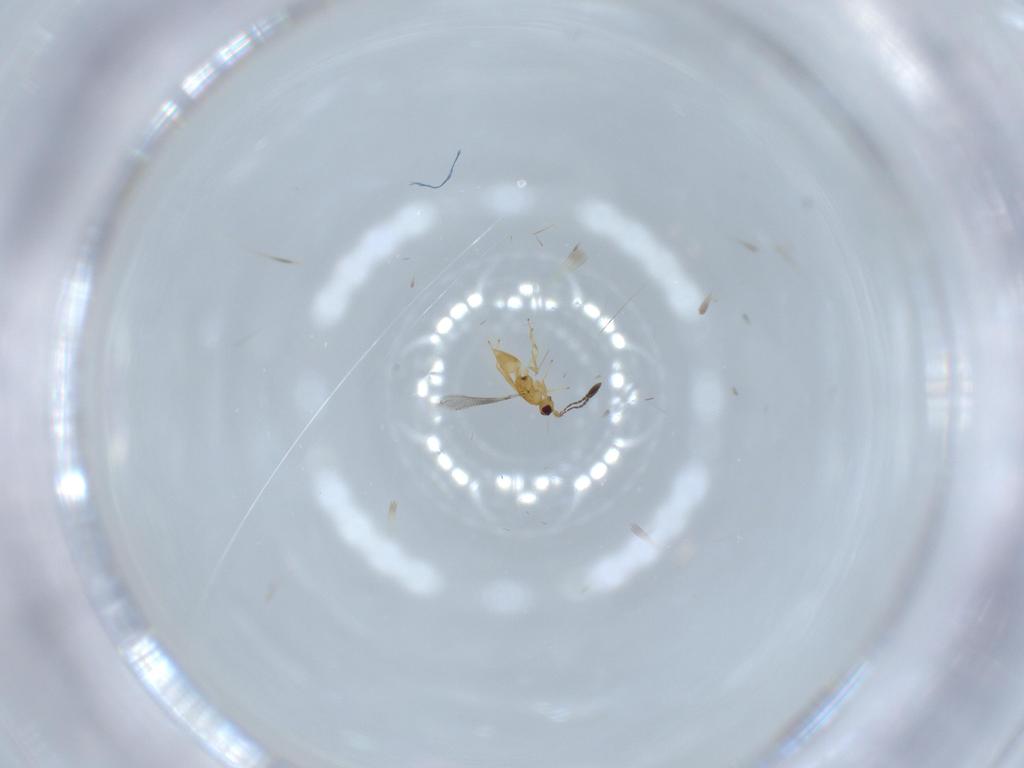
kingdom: Animalia
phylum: Arthropoda
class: Insecta
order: Hymenoptera
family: Mymaridae
